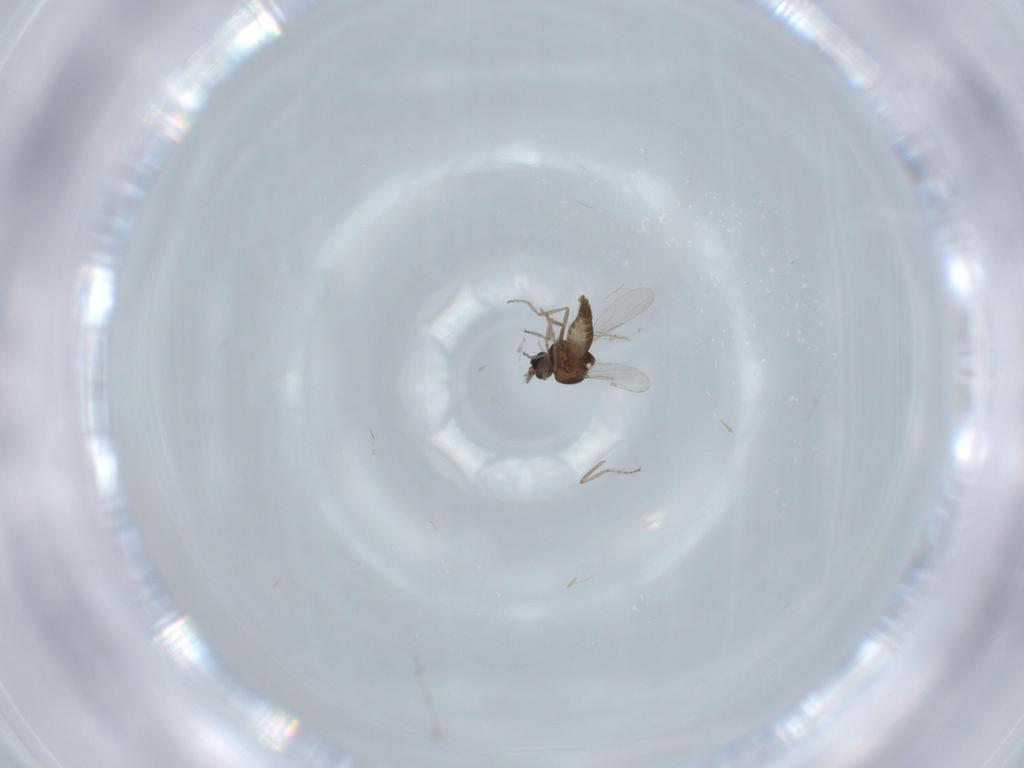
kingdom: Animalia
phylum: Arthropoda
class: Insecta
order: Diptera
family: Ceratopogonidae
